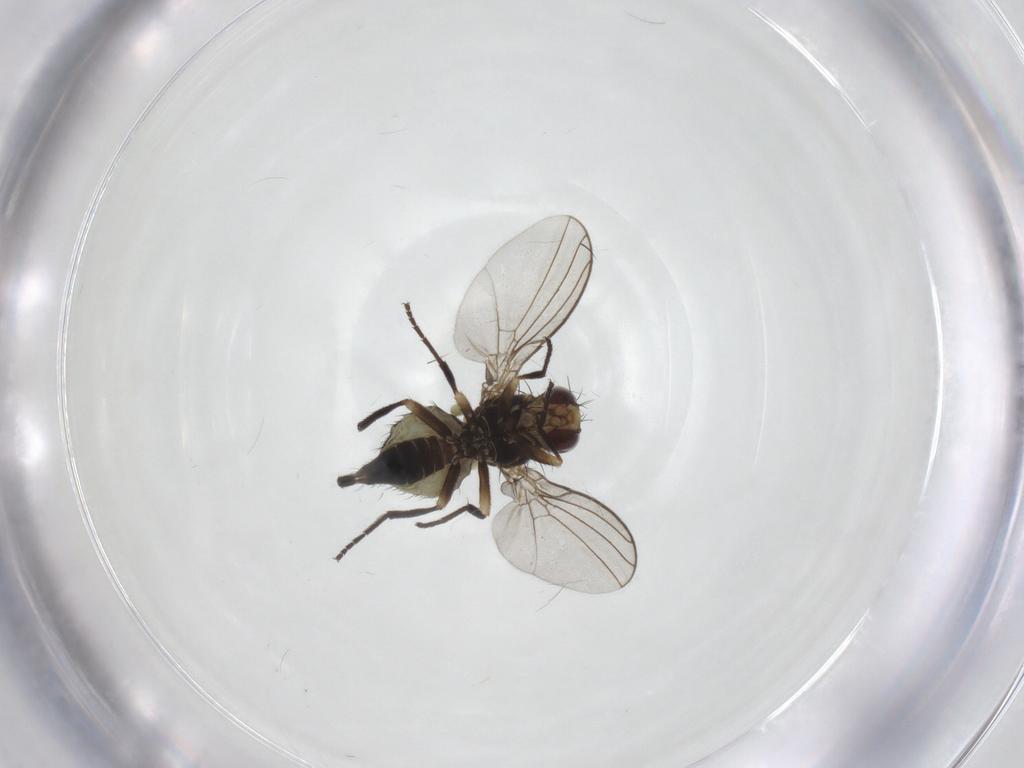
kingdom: Animalia
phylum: Arthropoda
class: Insecta
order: Diptera
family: Agromyzidae
